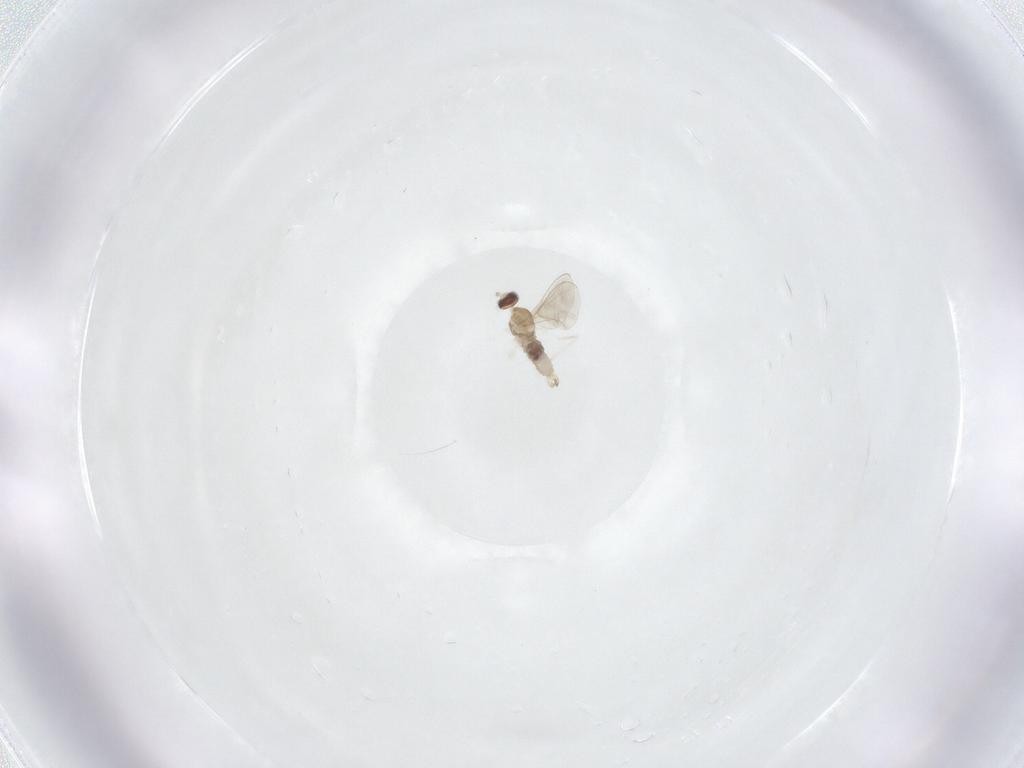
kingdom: Animalia
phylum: Arthropoda
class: Insecta
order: Diptera
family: Cecidomyiidae
